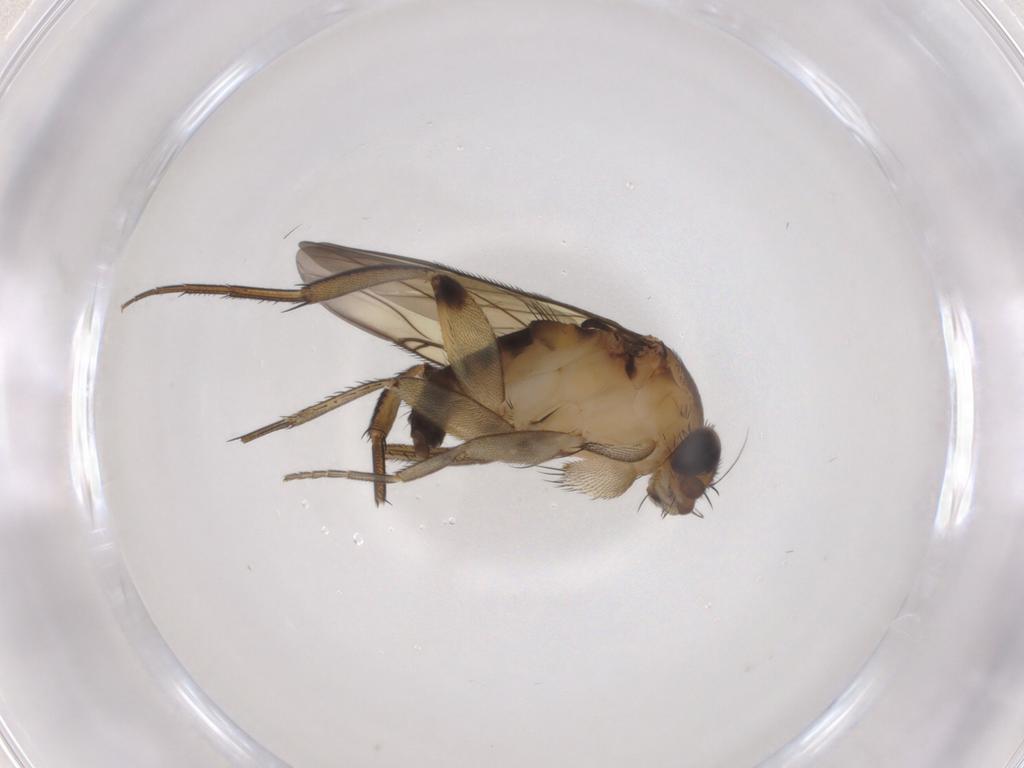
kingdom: Animalia
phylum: Arthropoda
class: Insecta
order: Diptera
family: Phoridae
